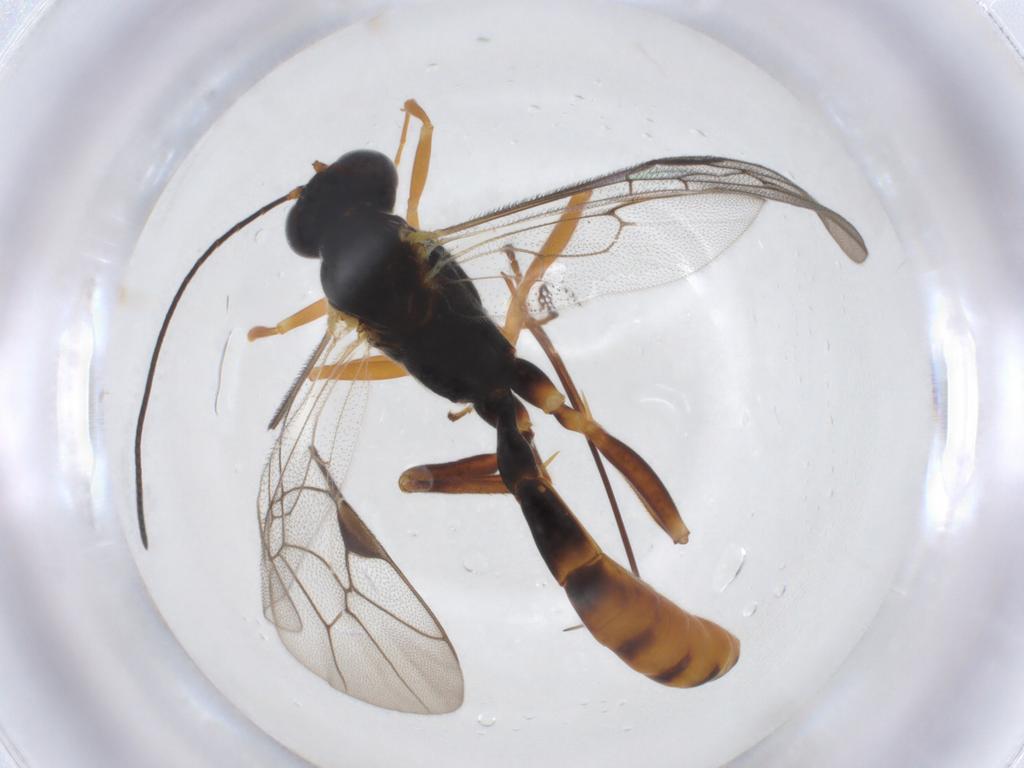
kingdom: Animalia
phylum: Arthropoda
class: Insecta
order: Hymenoptera
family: Ichneumonidae
